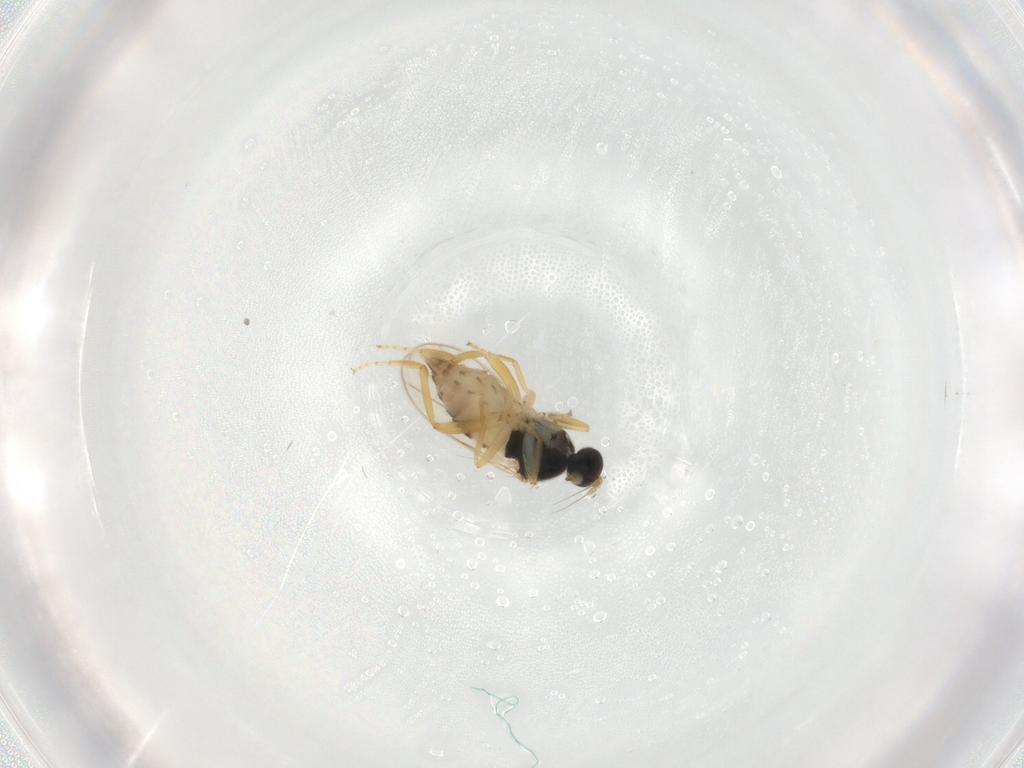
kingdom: Animalia
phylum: Arthropoda
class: Insecta
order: Diptera
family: Hybotidae
